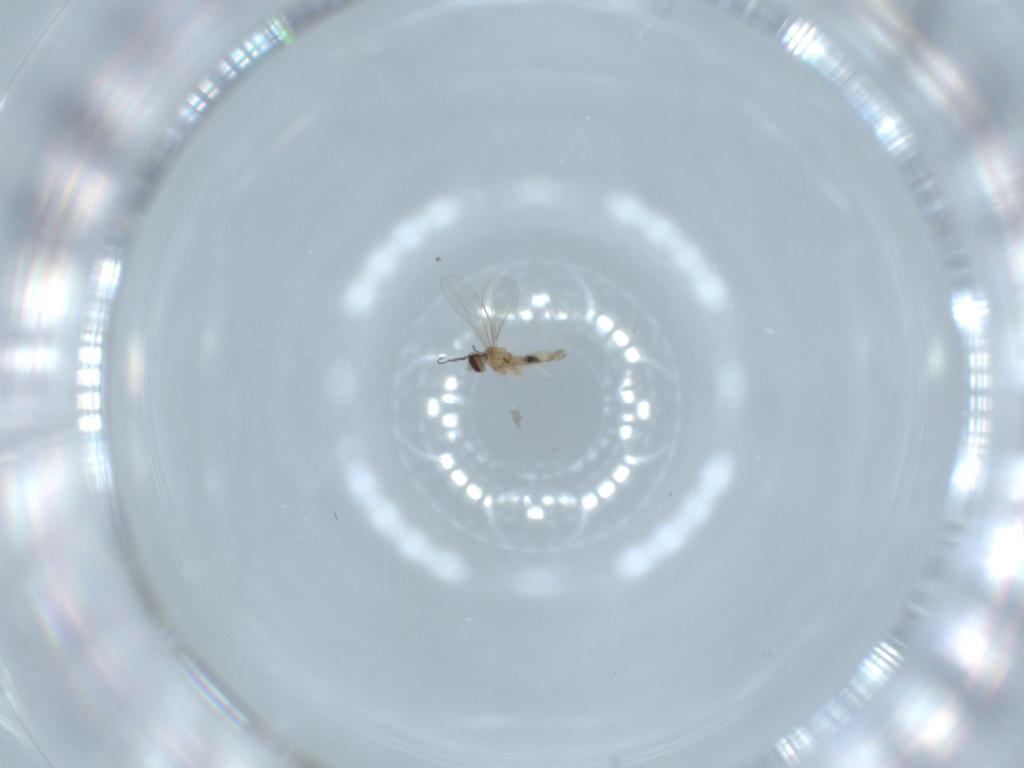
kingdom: Animalia
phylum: Arthropoda
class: Insecta
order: Diptera
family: Cecidomyiidae
